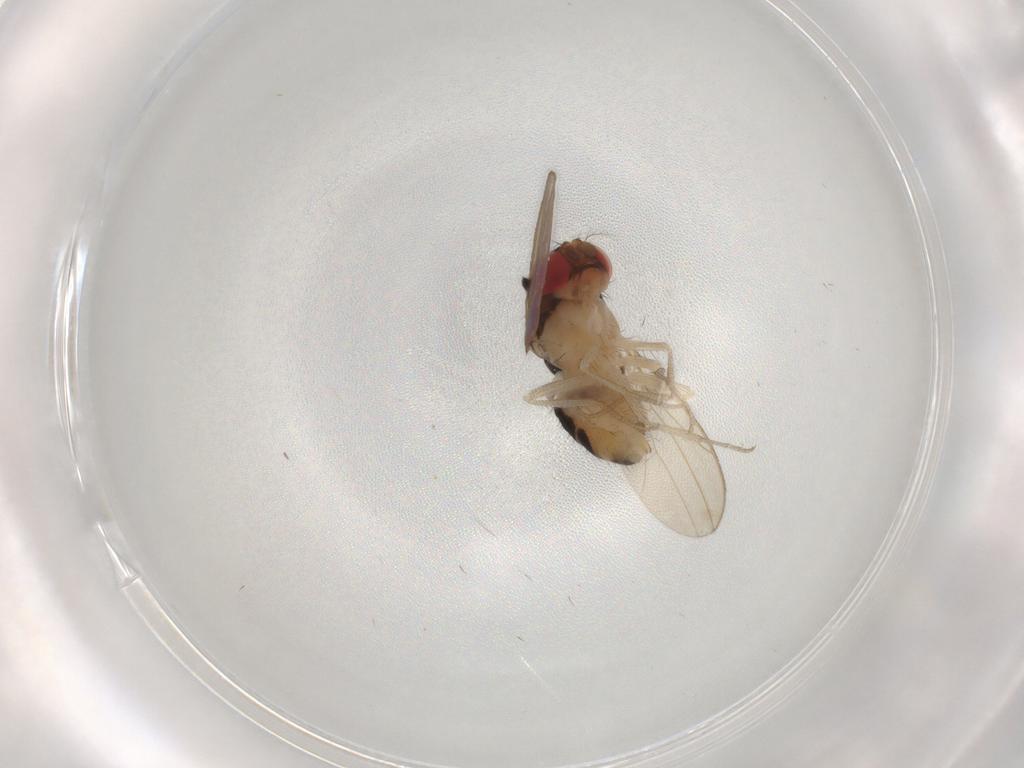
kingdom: Animalia
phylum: Arthropoda
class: Insecta
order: Diptera
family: Drosophilidae
